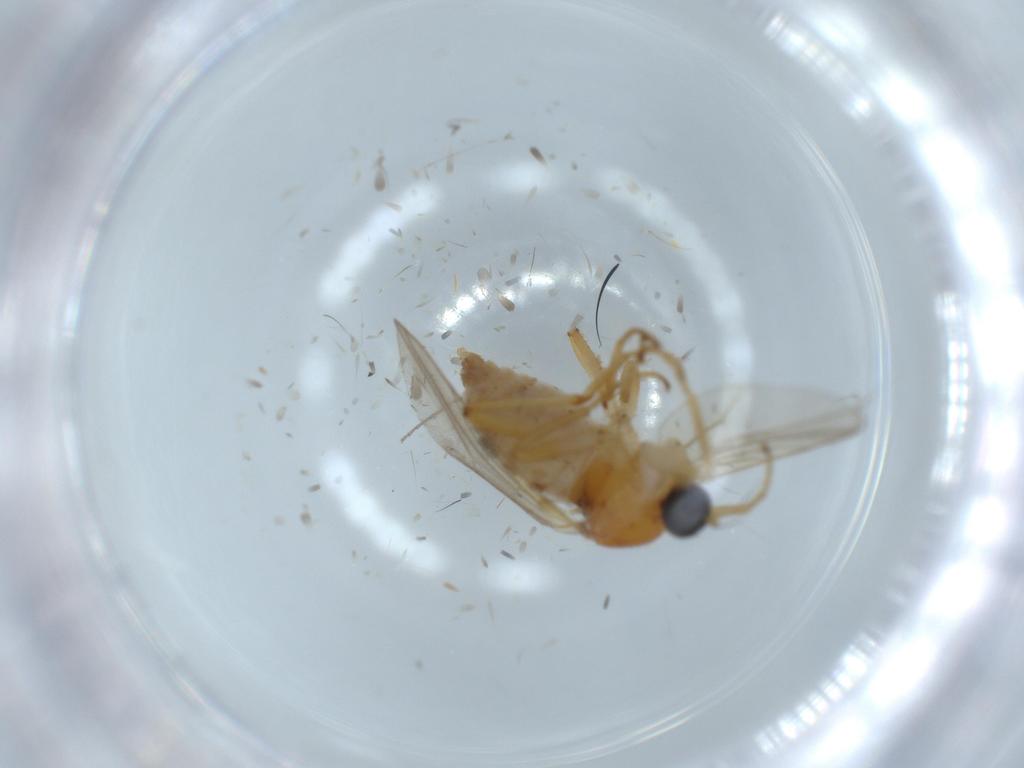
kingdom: Animalia
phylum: Arthropoda
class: Insecta
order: Diptera
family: Hybotidae
